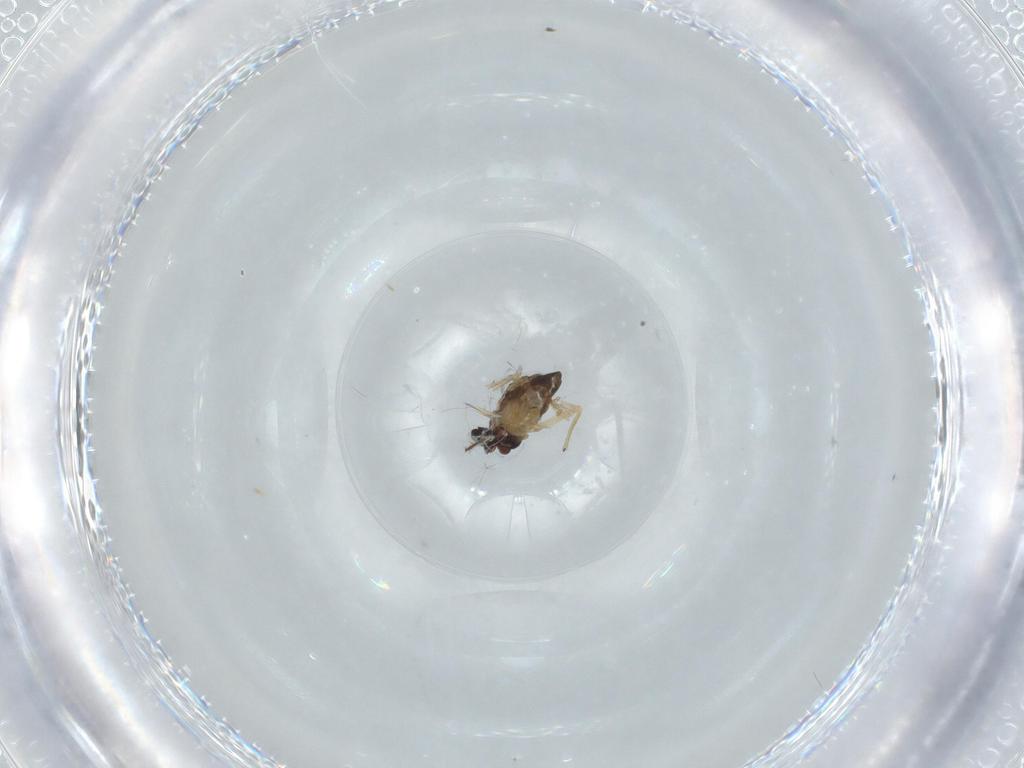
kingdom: Animalia
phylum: Arthropoda
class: Insecta
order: Diptera
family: Chironomidae
